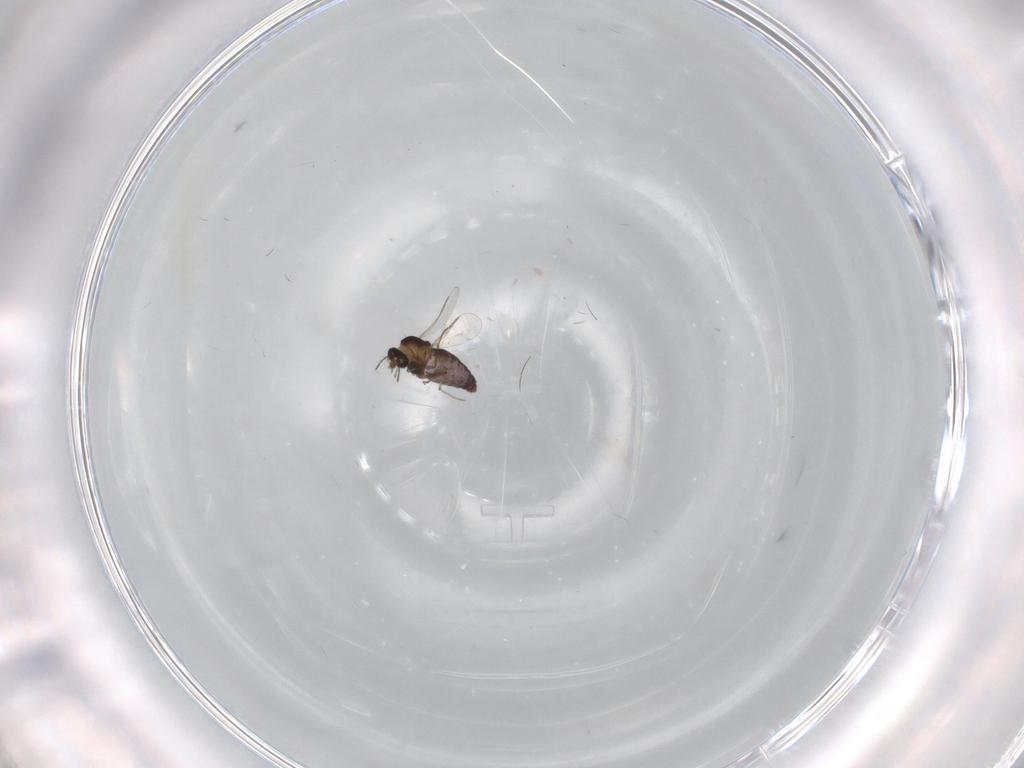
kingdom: Animalia
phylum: Arthropoda
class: Insecta
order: Diptera
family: Chironomidae
